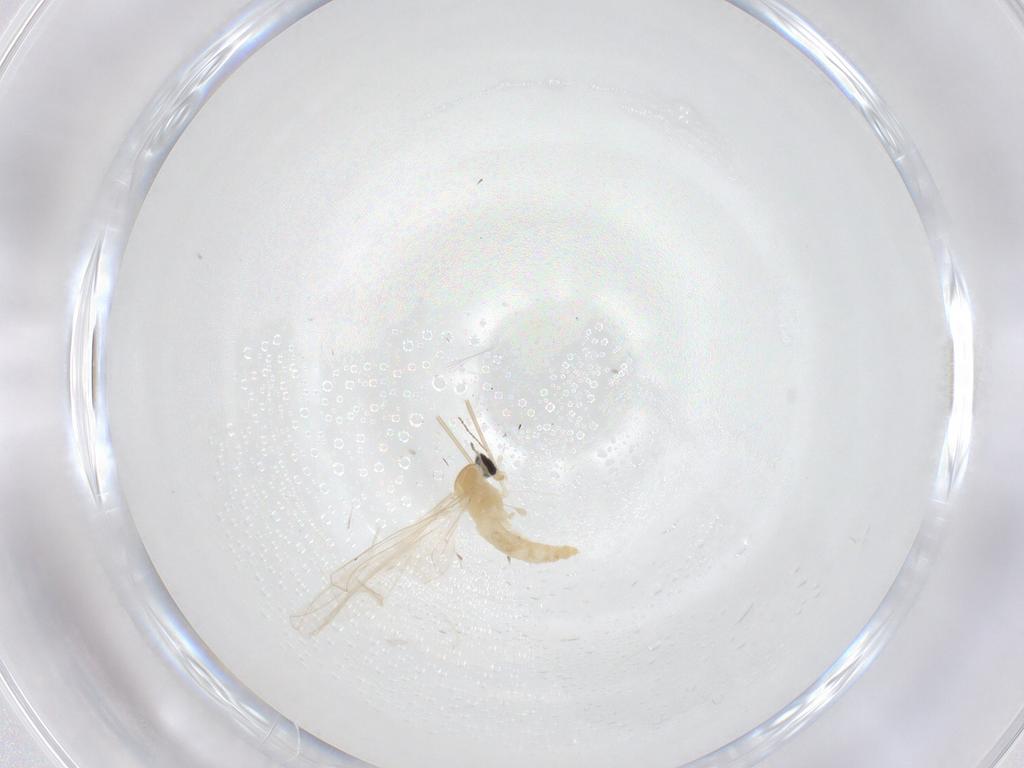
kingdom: Animalia
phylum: Arthropoda
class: Insecta
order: Diptera
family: Cecidomyiidae
